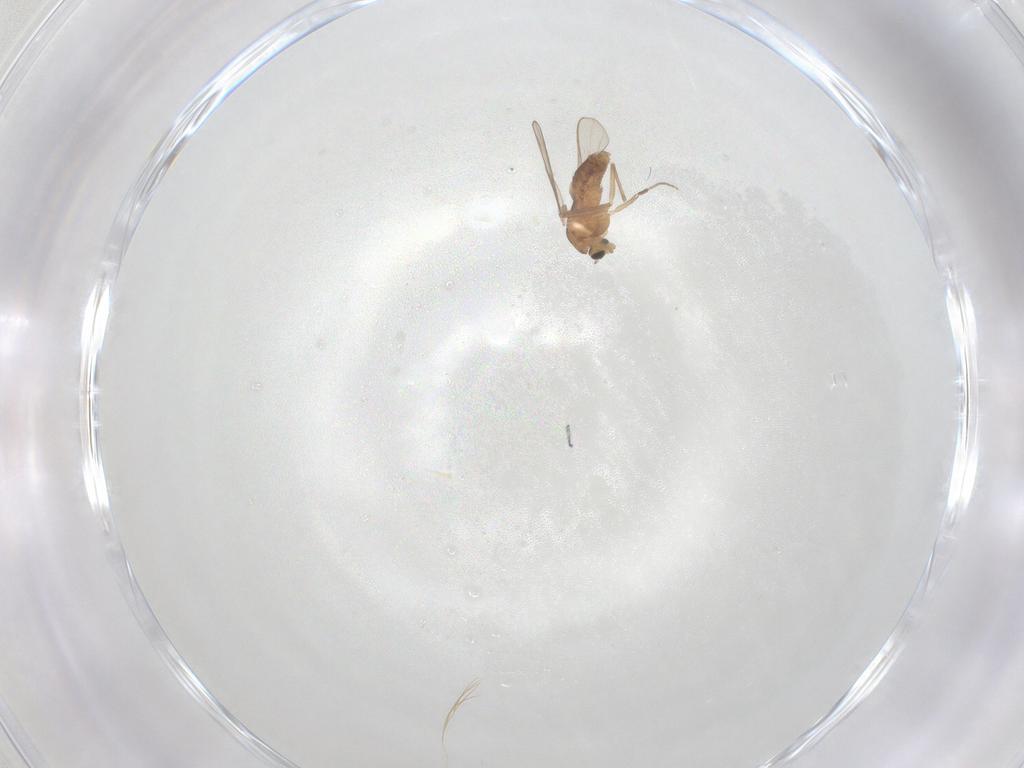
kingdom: Animalia
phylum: Arthropoda
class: Insecta
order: Diptera
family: Chironomidae
